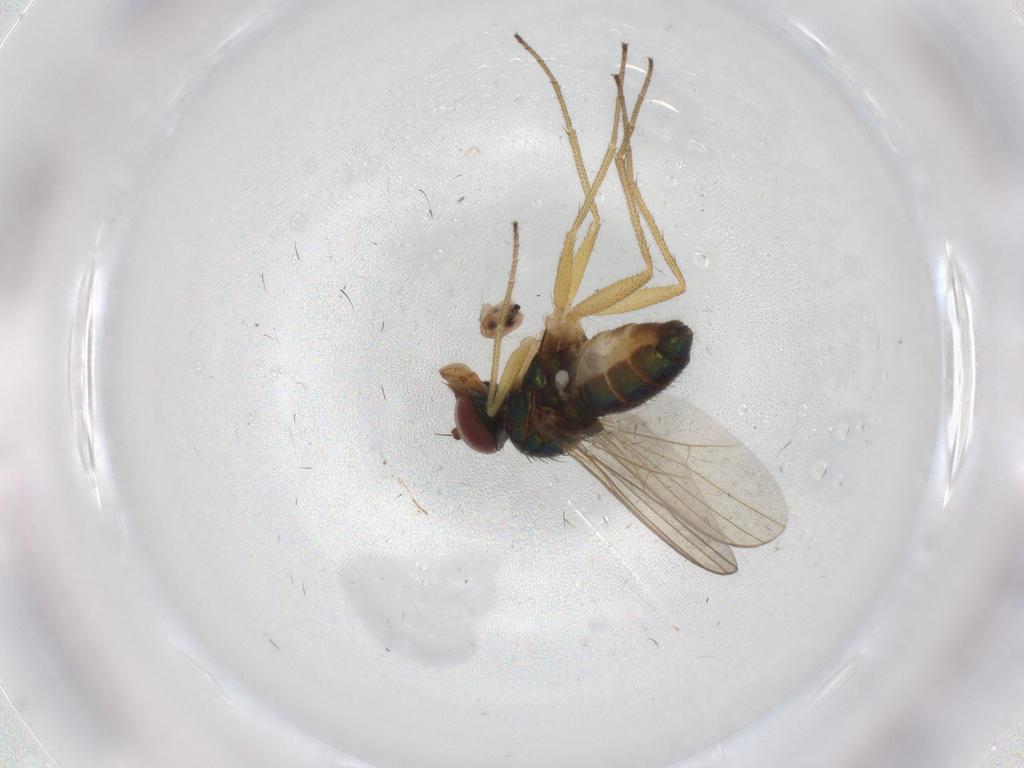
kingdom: Animalia
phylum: Arthropoda
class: Insecta
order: Diptera
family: Dolichopodidae
